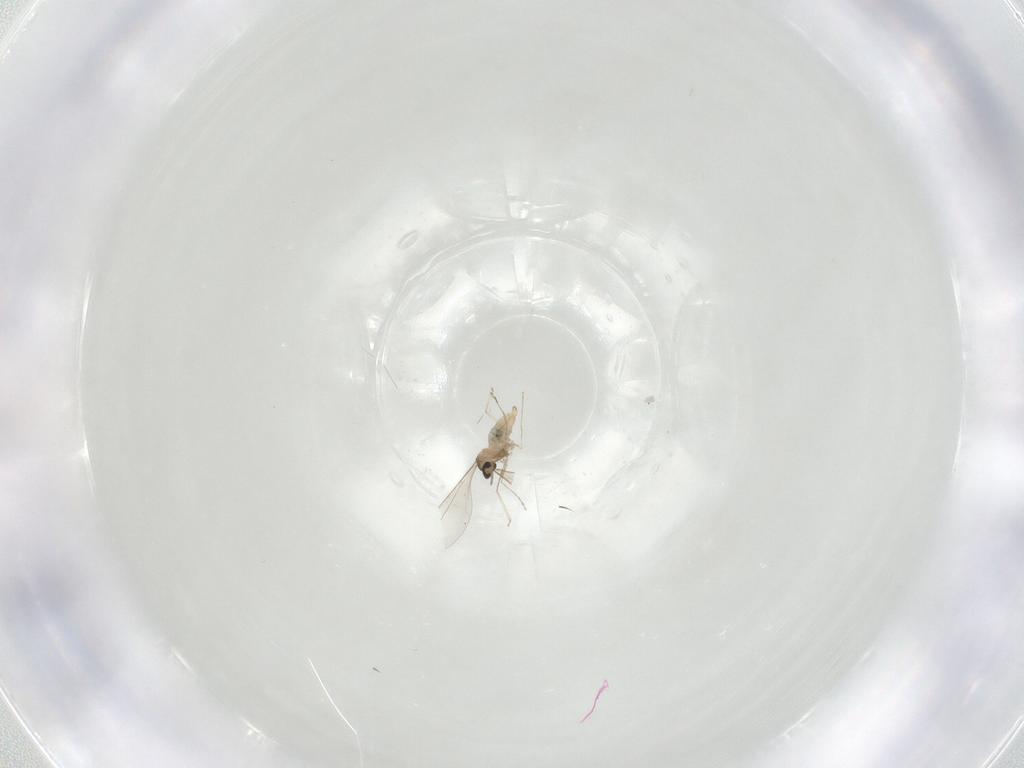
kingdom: Animalia
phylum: Arthropoda
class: Insecta
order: Diptera
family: Cecidomyiidae
